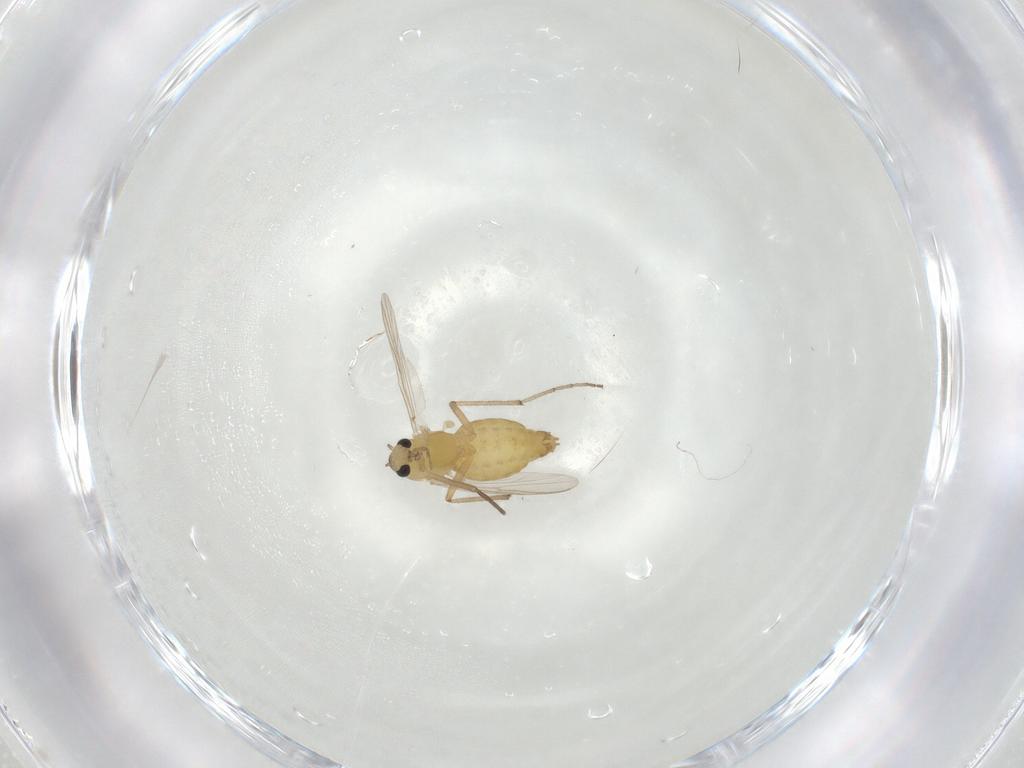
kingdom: Animalia
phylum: Arthropoda
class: Insecta
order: Diptera
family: Chironomidae
